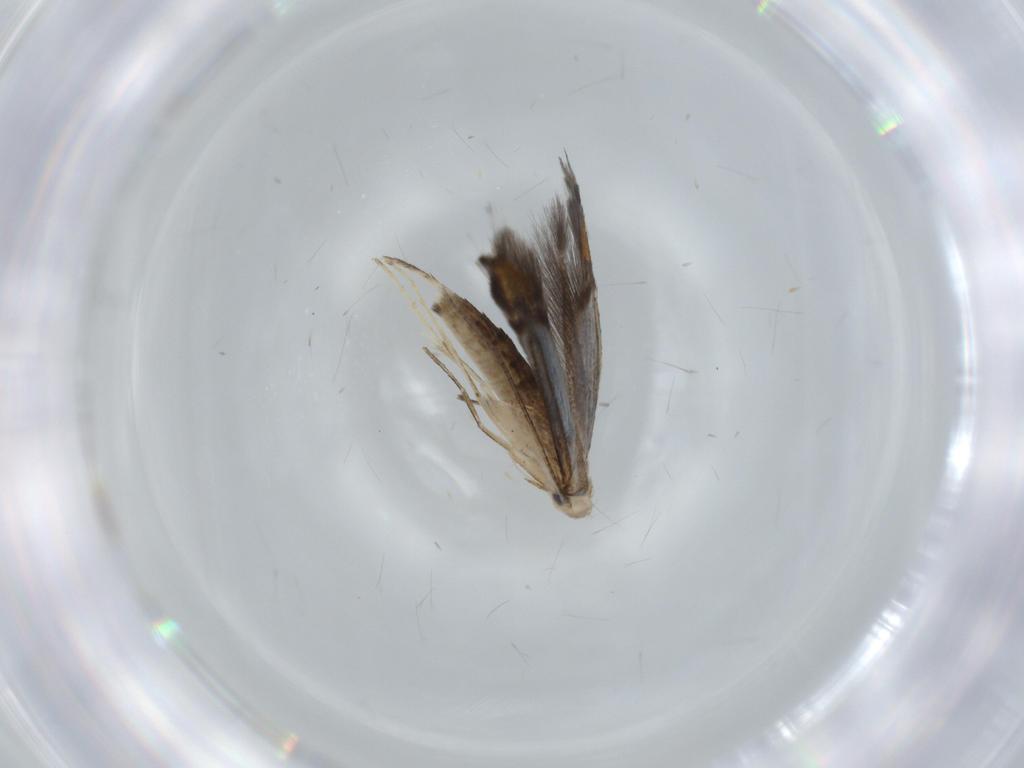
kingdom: Animalia
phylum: Arthropoda
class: Insecta
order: Lepidoptera
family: Gracillariidae
